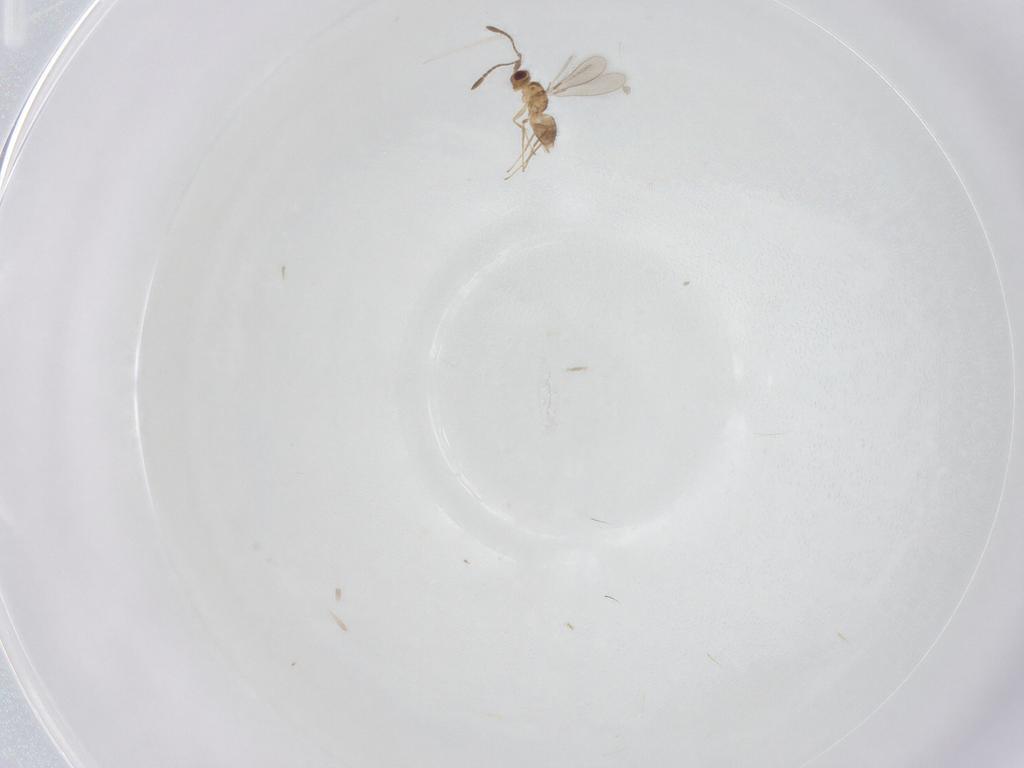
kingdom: Animalia
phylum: Arthropoda
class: Insecta
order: Hymenoptera
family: Mymaridae
